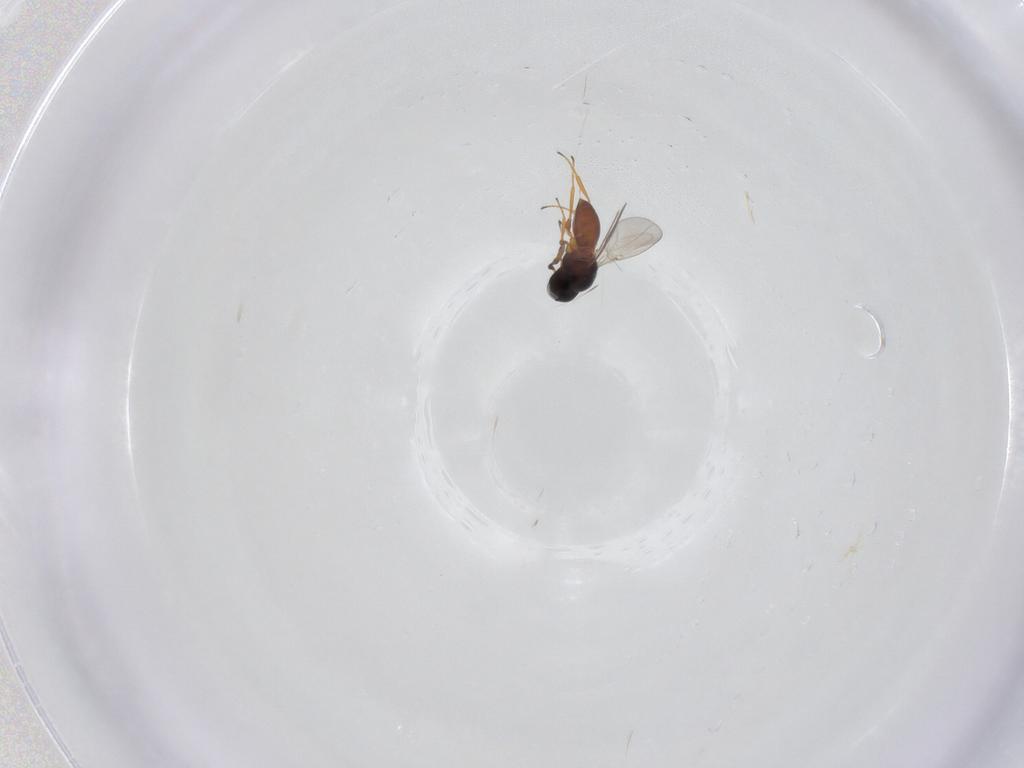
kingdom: Animalia
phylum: Arthropoda
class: Insecta
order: Hymenoptera
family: Platygastridae
